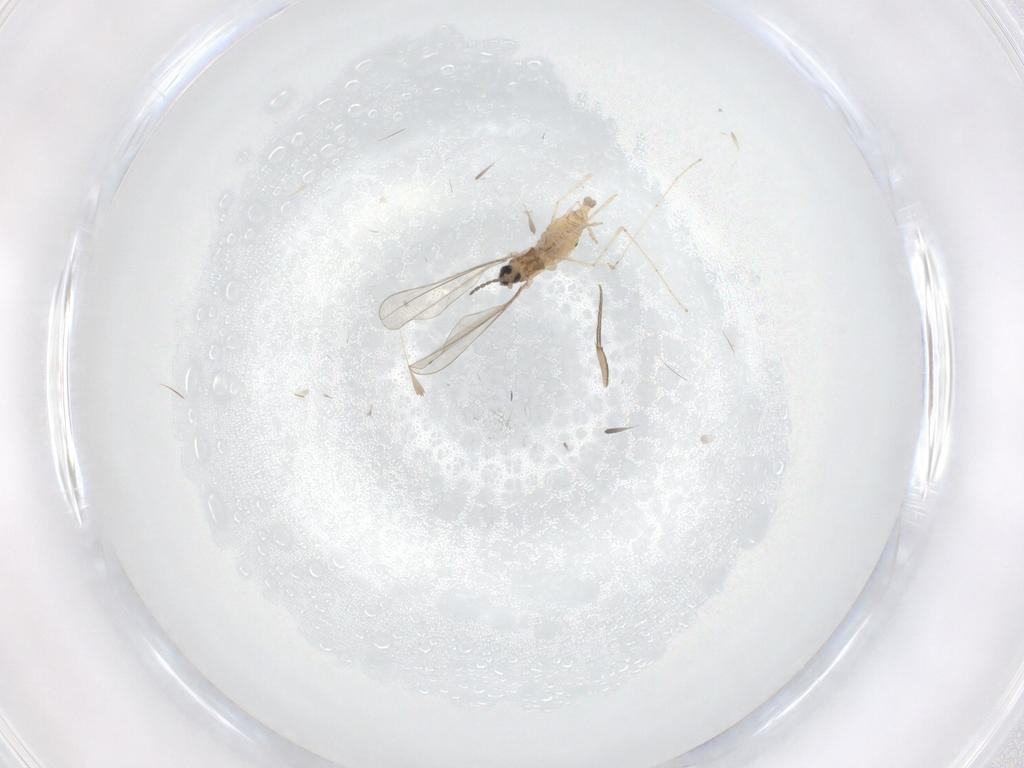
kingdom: Animalia
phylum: Arthropoda
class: Insecta
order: Diptera
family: Cecidomyiidae
